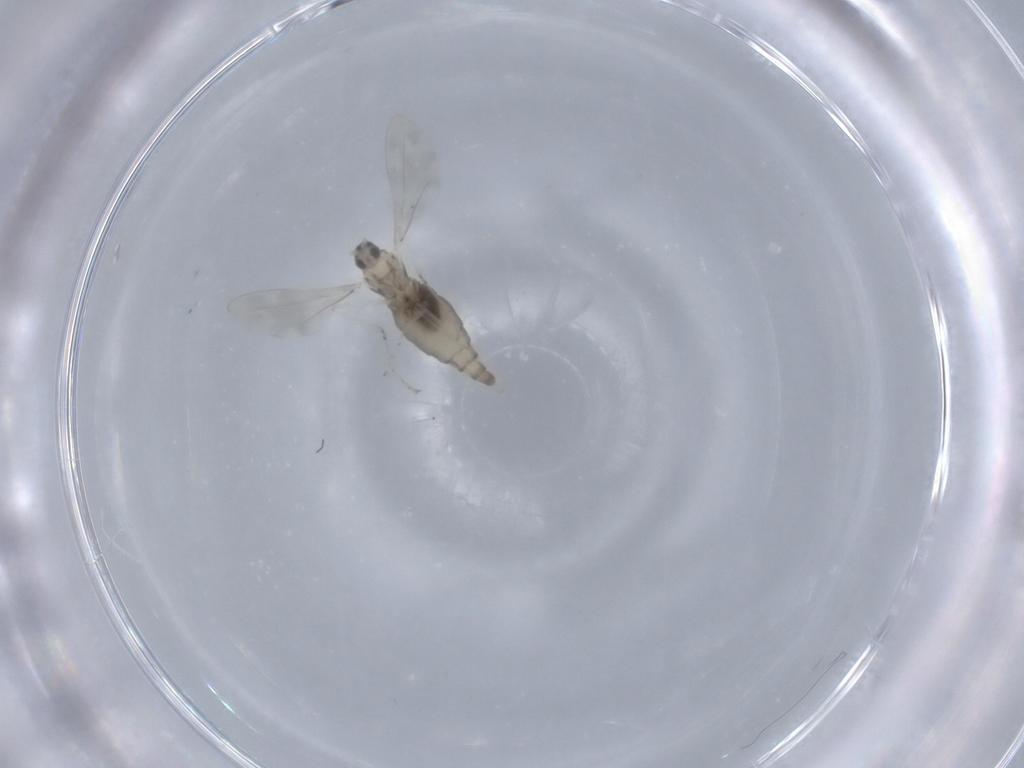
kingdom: Animalia
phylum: Arthropoda
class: Insecta
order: Diptera
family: Cecidomyiidae
